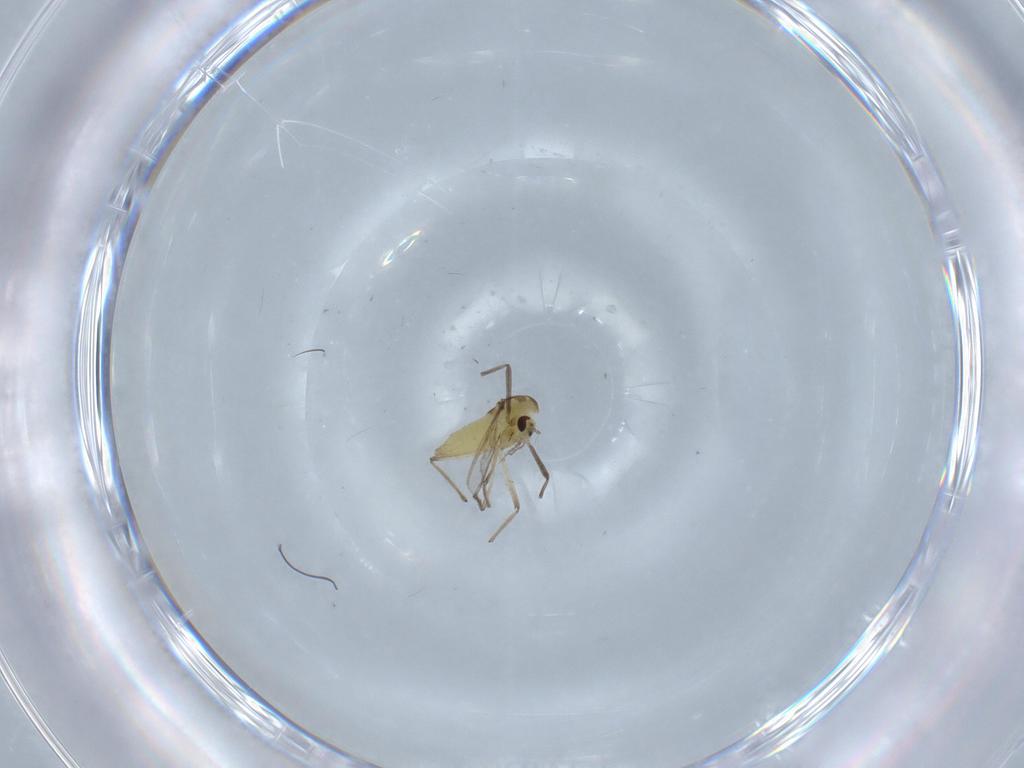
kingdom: Animalia
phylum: Arthropoda
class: Insecta
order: Diptera
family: Chironomidae
